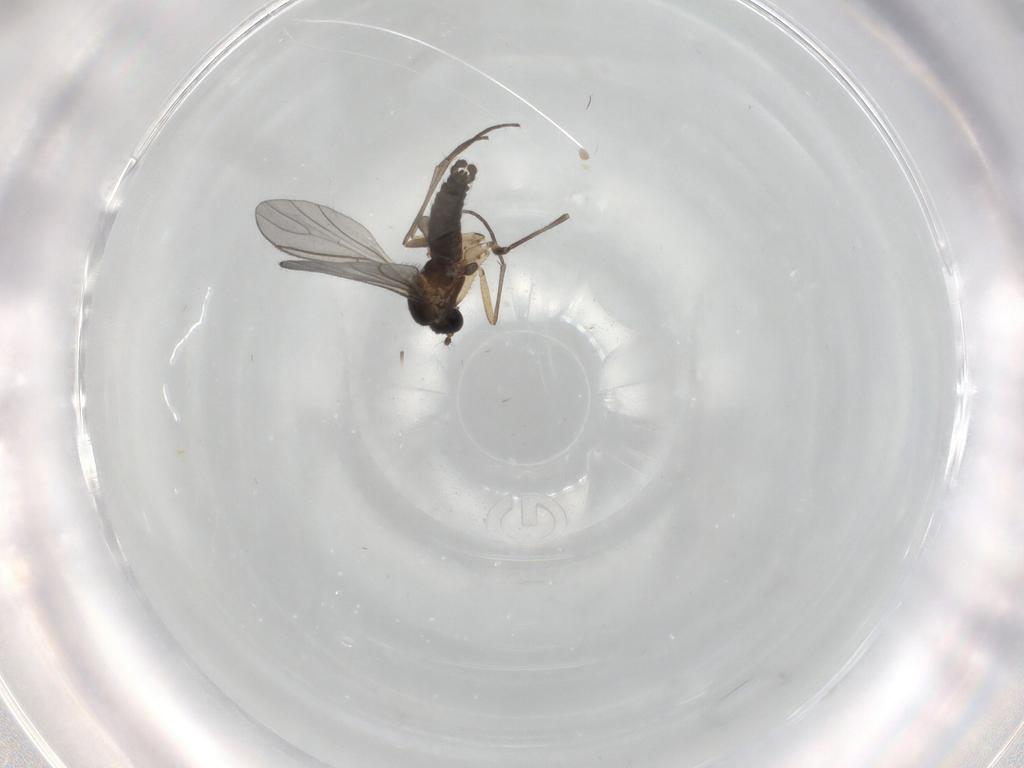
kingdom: Animalia
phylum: Arthropoda
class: Insecta
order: Diptera
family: Sciaridae
